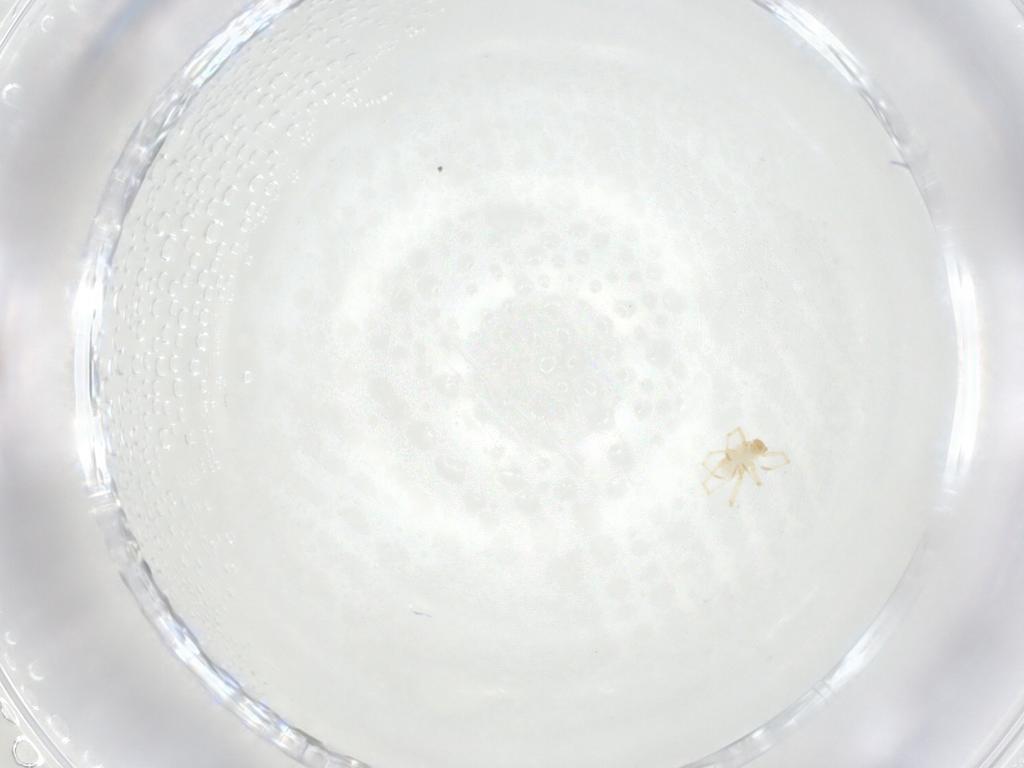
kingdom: Animalia
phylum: Arthropoda
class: Arachnida
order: Trombidiformes
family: Erythraeidae
